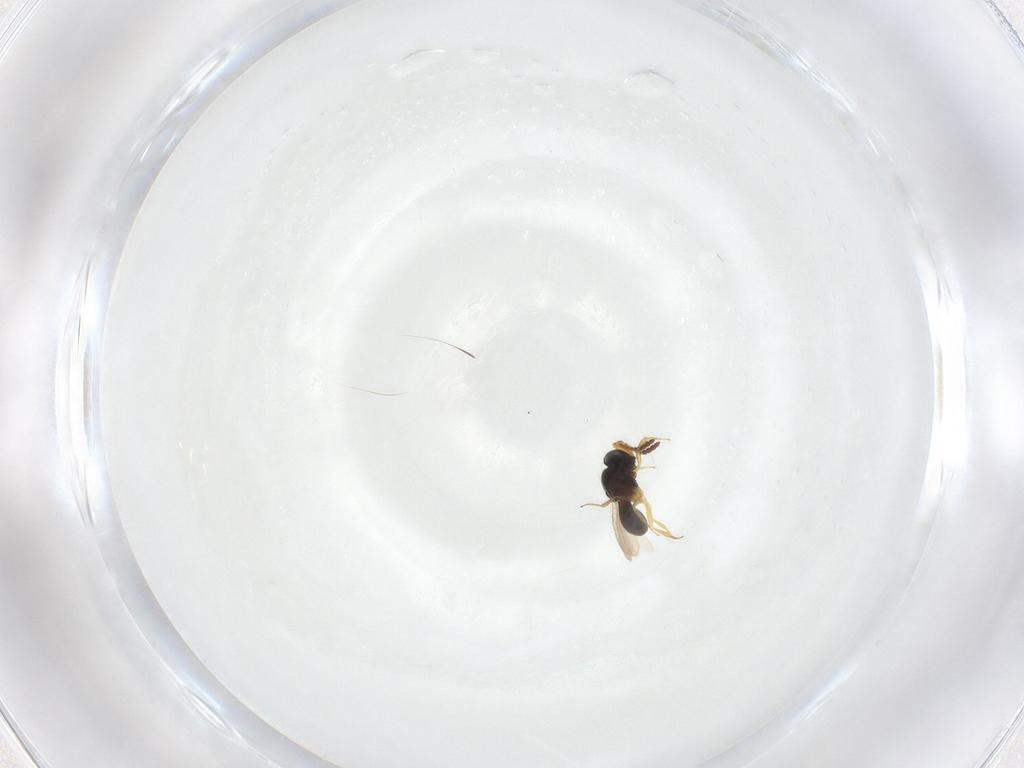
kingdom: Animalia
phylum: Arthropoda
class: Insecta
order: Hymenoptera
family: Scelionidae
